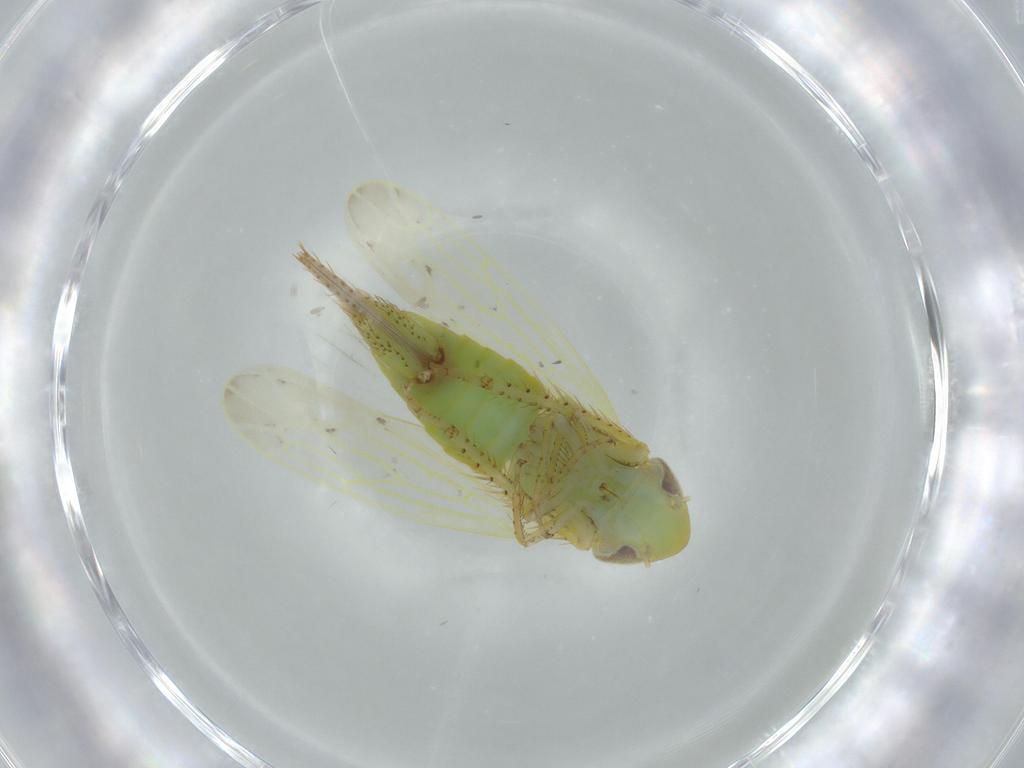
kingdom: Animalia
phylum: Arthropoda
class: Insecta
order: Hemiptera
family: Cicadellidae
